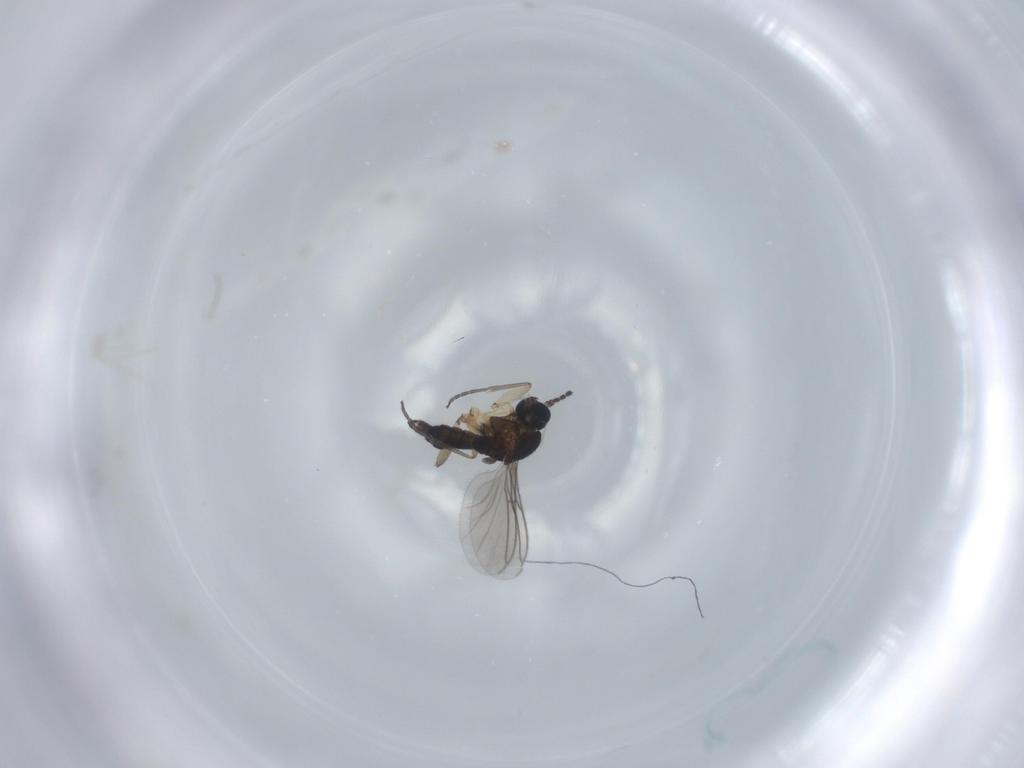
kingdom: Animalia
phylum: Arthropoda
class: Insecta
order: Diptera
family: Sciaridae
